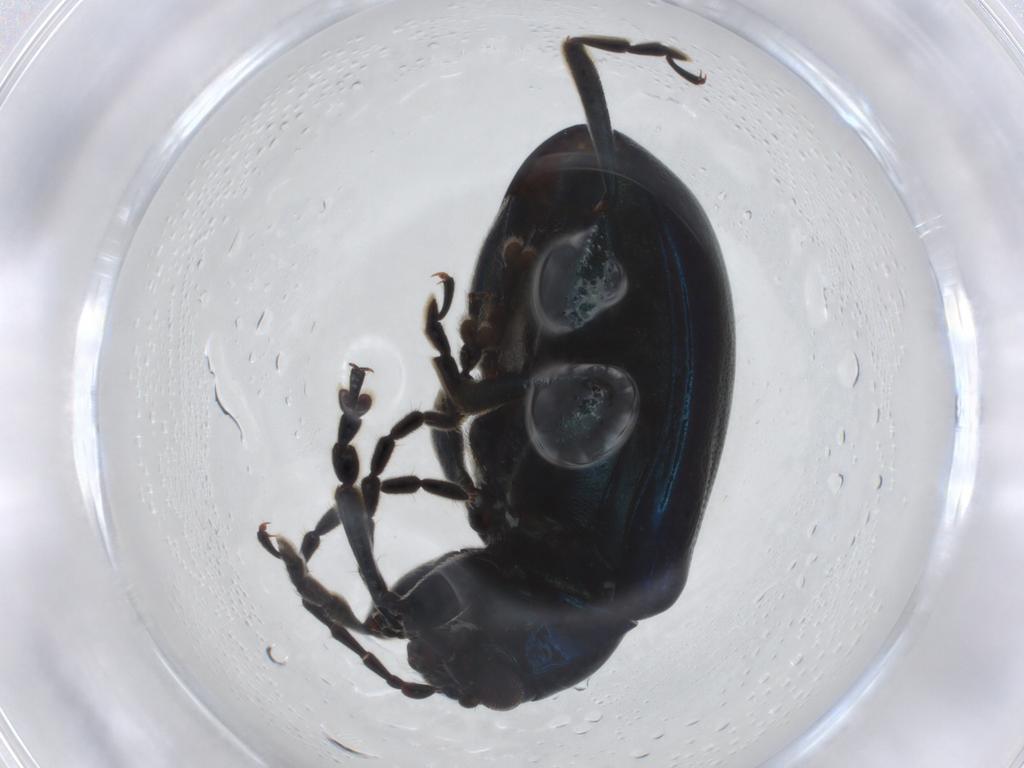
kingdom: Animalia
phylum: Arthropoda
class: Insecta
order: Coleoptera
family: Chrysomelidae
